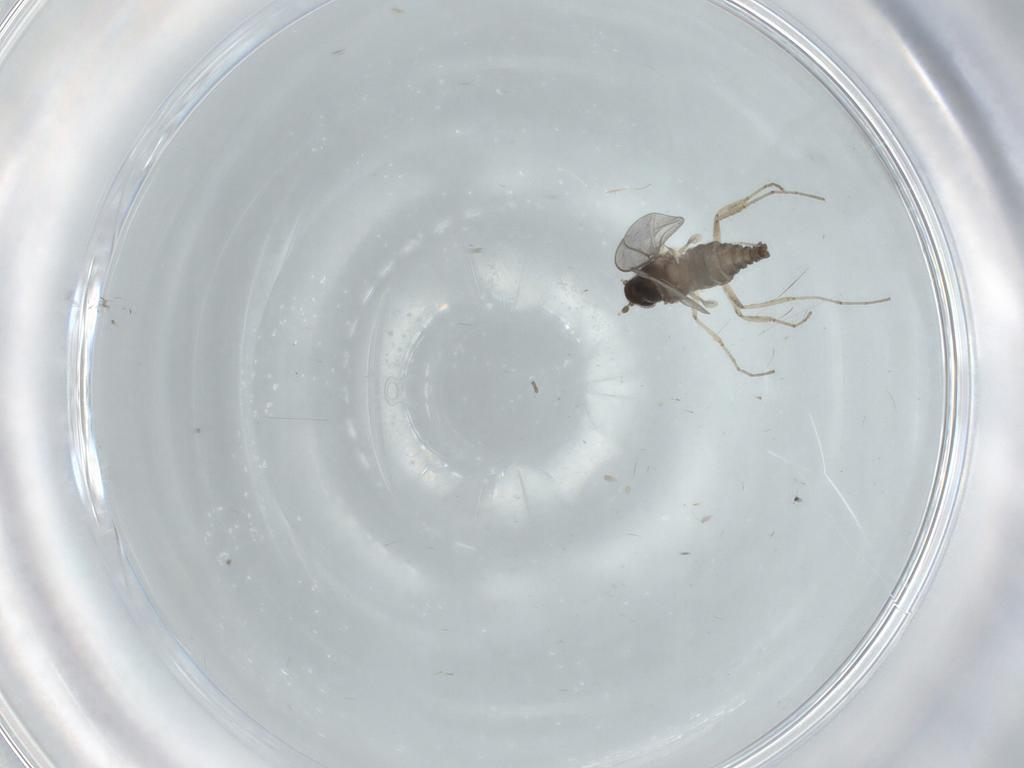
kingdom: Animalia
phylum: Arthropoda
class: Insecta
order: Diptera
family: Cecidomyiidae
